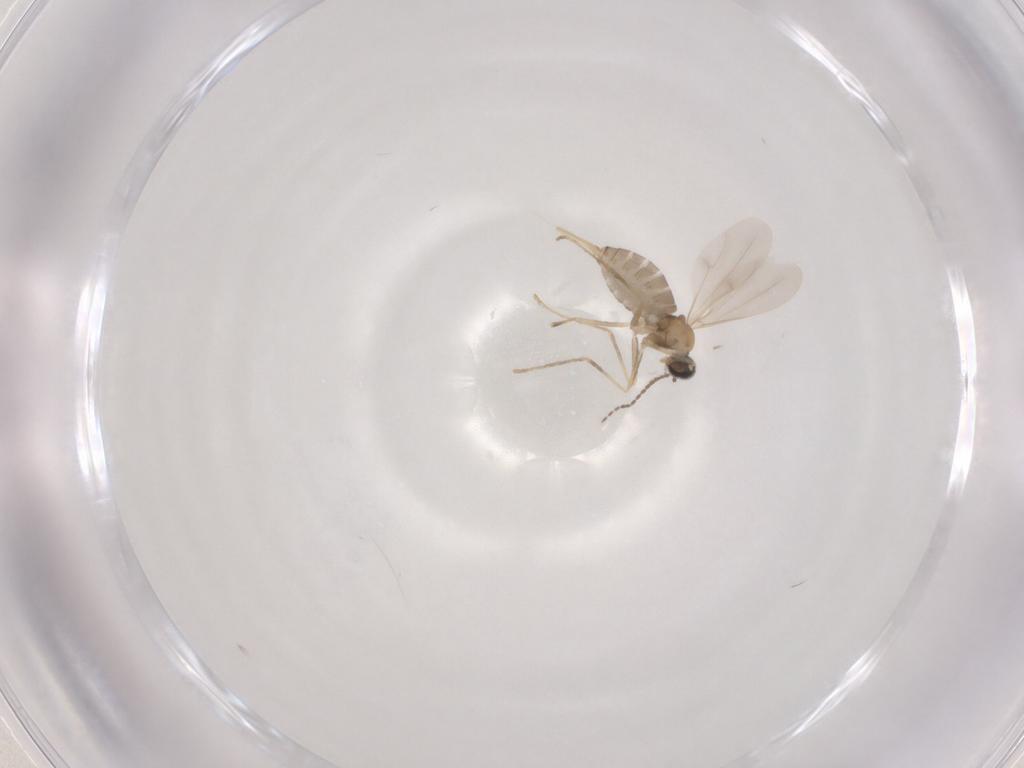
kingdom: Animalia
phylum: Arthropoda
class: Insecta
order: Diptera
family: Cecidomyiidae
